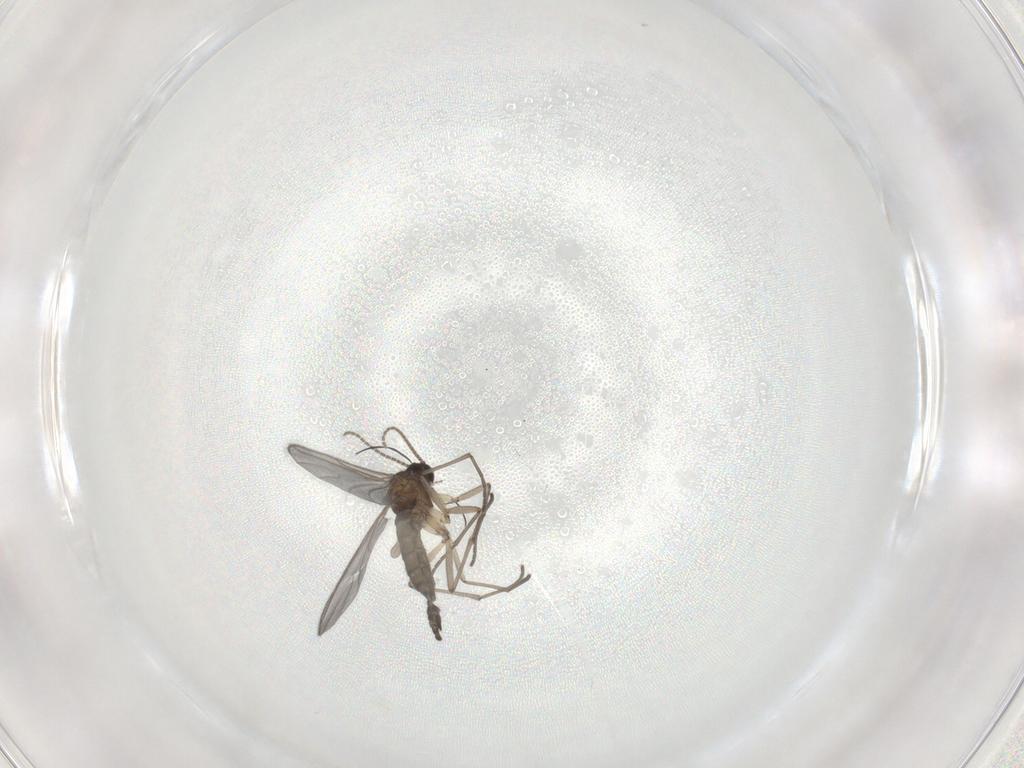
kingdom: Animalia
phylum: Arthropoda
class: Insecta
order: Diptera
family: Sciaridae
